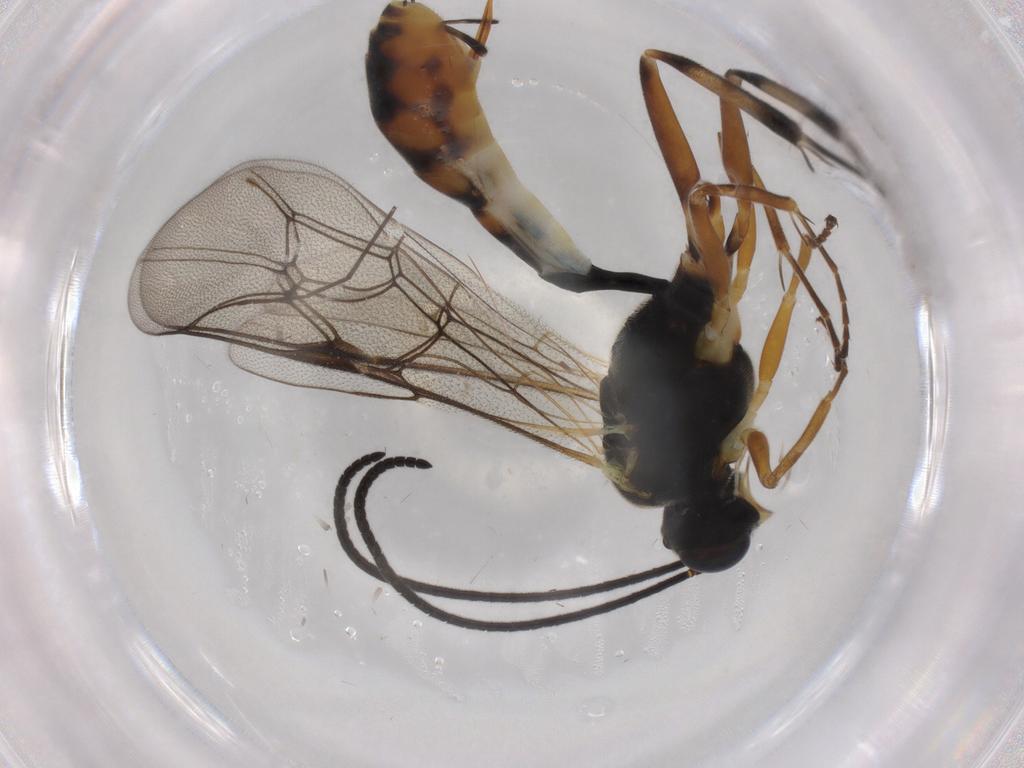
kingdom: Animalia
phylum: Arthropoda
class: Insecta
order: Hymenoptera
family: Ichneumonidae
